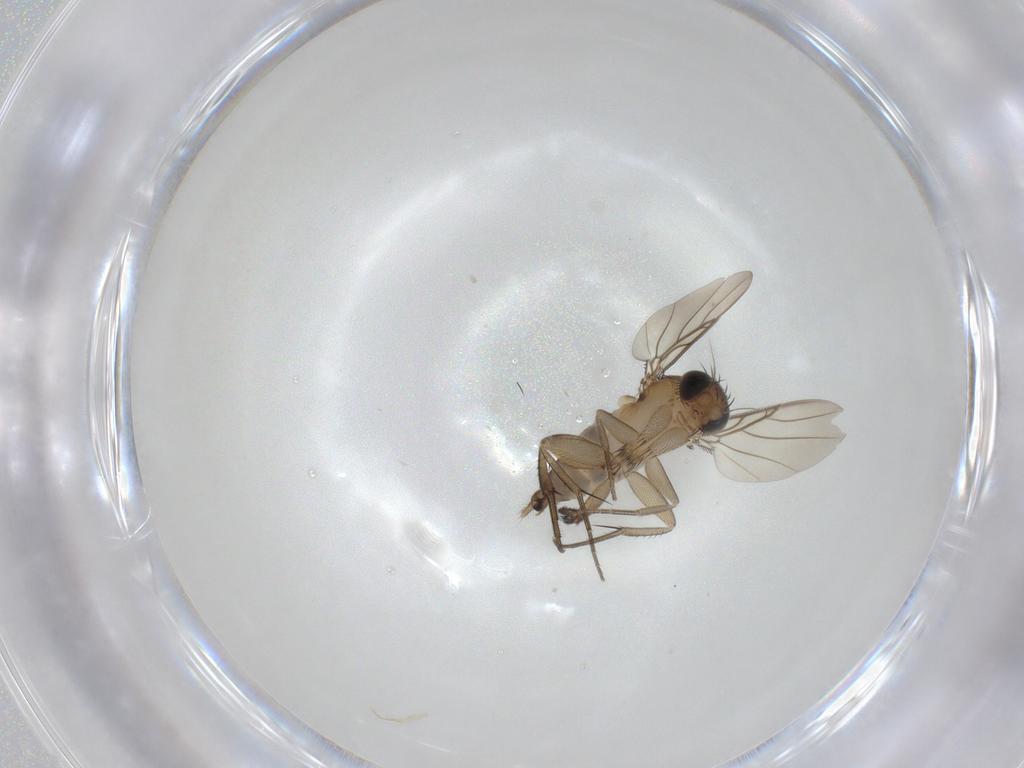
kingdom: Animalia
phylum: Arthropoda
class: Insecta
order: Diptera
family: Phoridae
